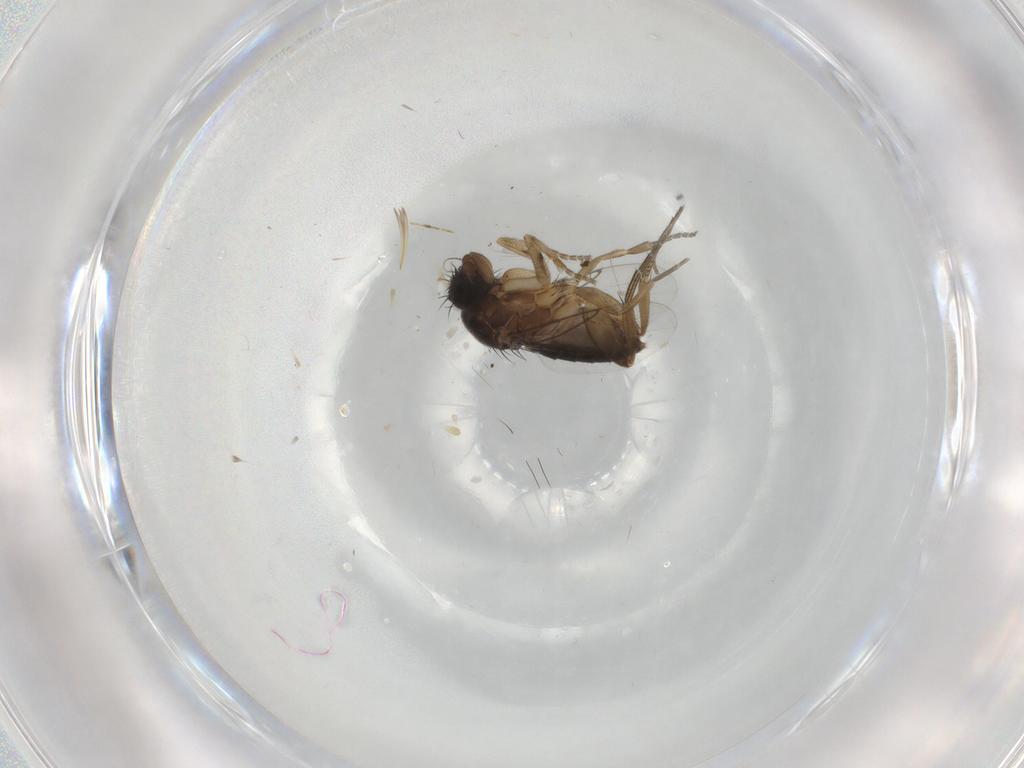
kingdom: Animalia
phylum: Arthropoda
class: Insecta
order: Diptera
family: Phoridae
